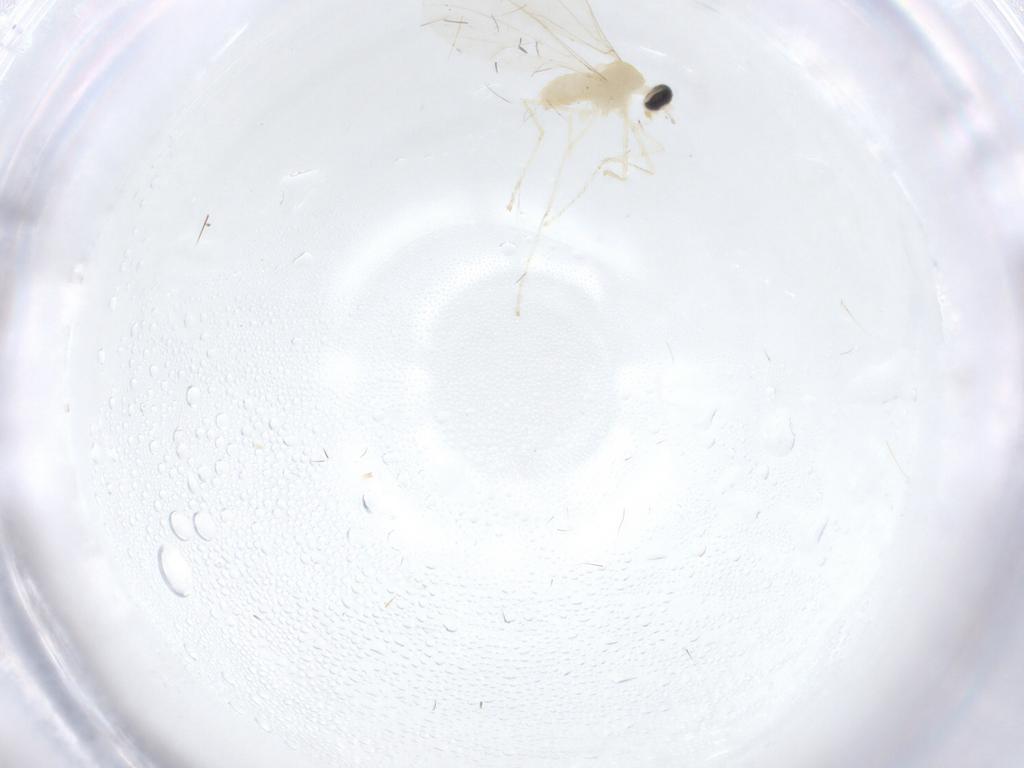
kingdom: Animalia
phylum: Arthropoda
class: Insecta
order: Diptera
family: Cecidomyiidae
